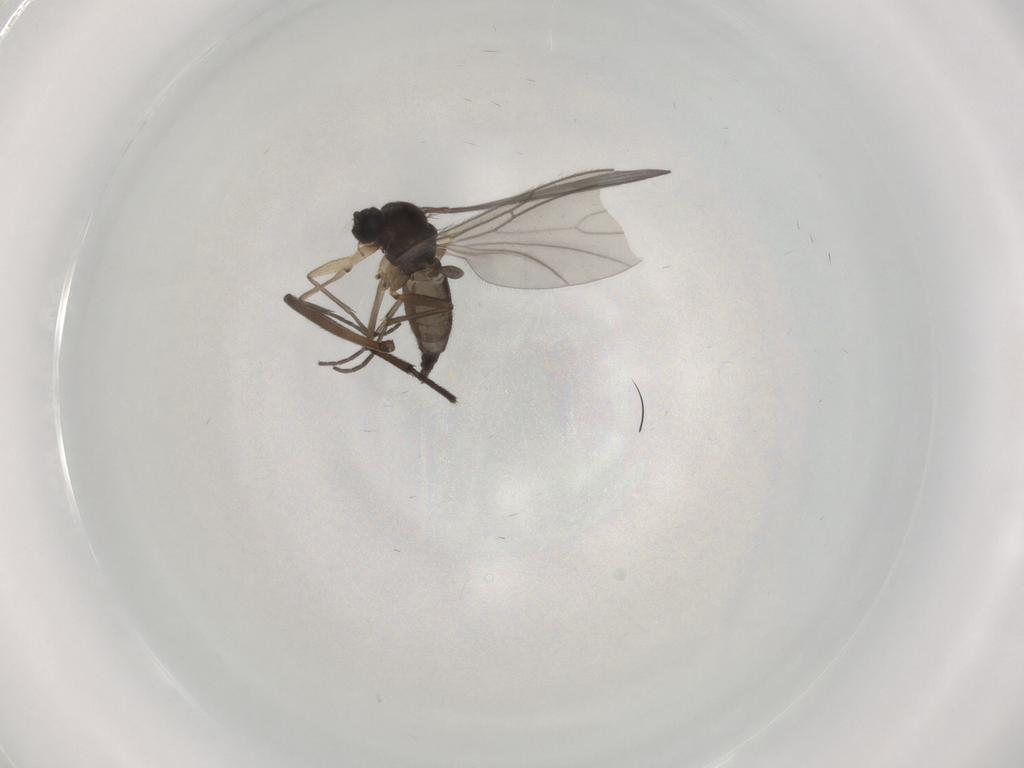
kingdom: Animalia
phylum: Arthropoda
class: Insecta
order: Diptera
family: Sciaridae
